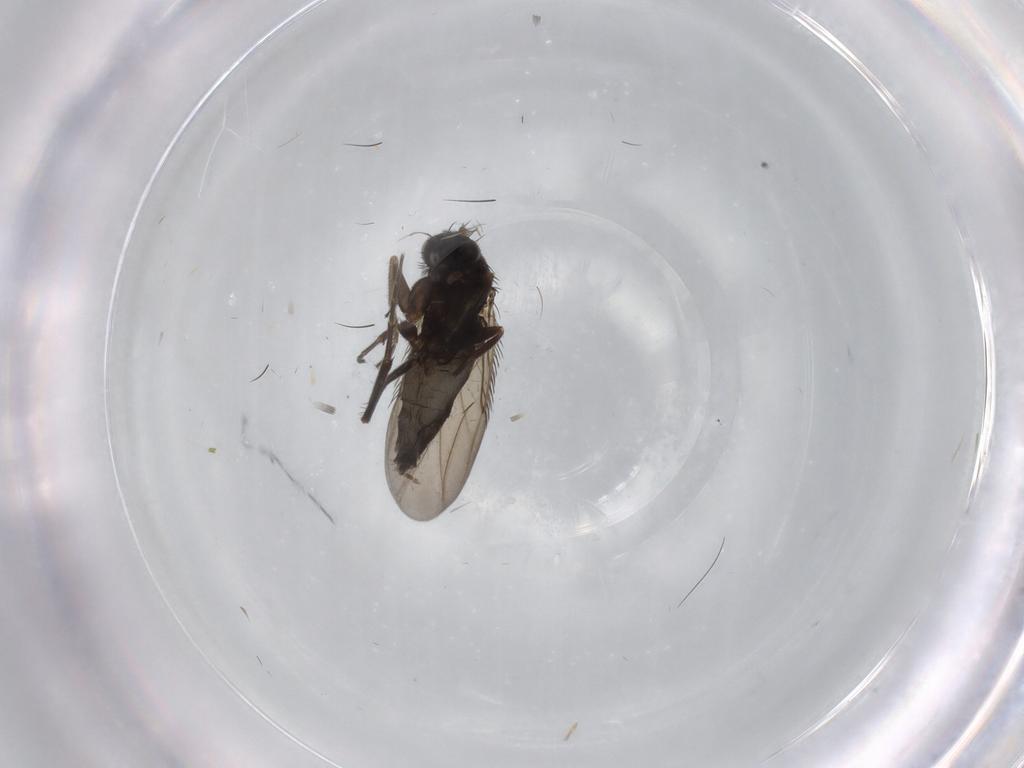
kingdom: Animalia
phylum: Arthropoda
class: Insecta
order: Diptera
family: Phoridae
